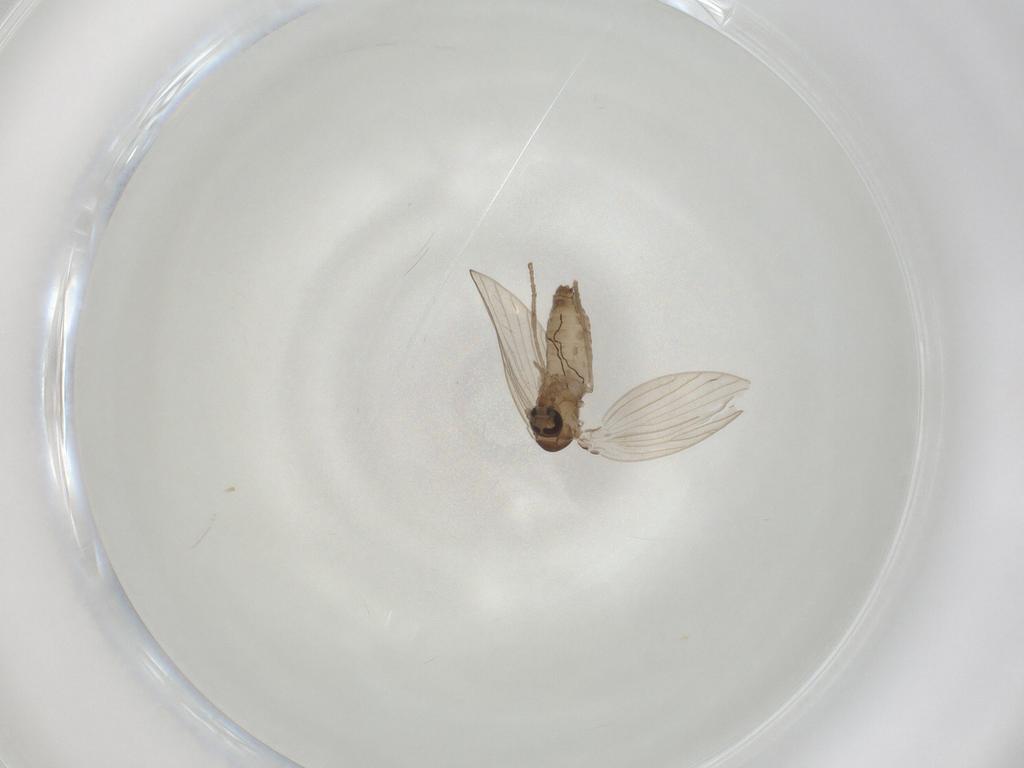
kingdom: Animalia
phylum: Arthropoda
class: Insecta
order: Diptera
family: Psychodidae
